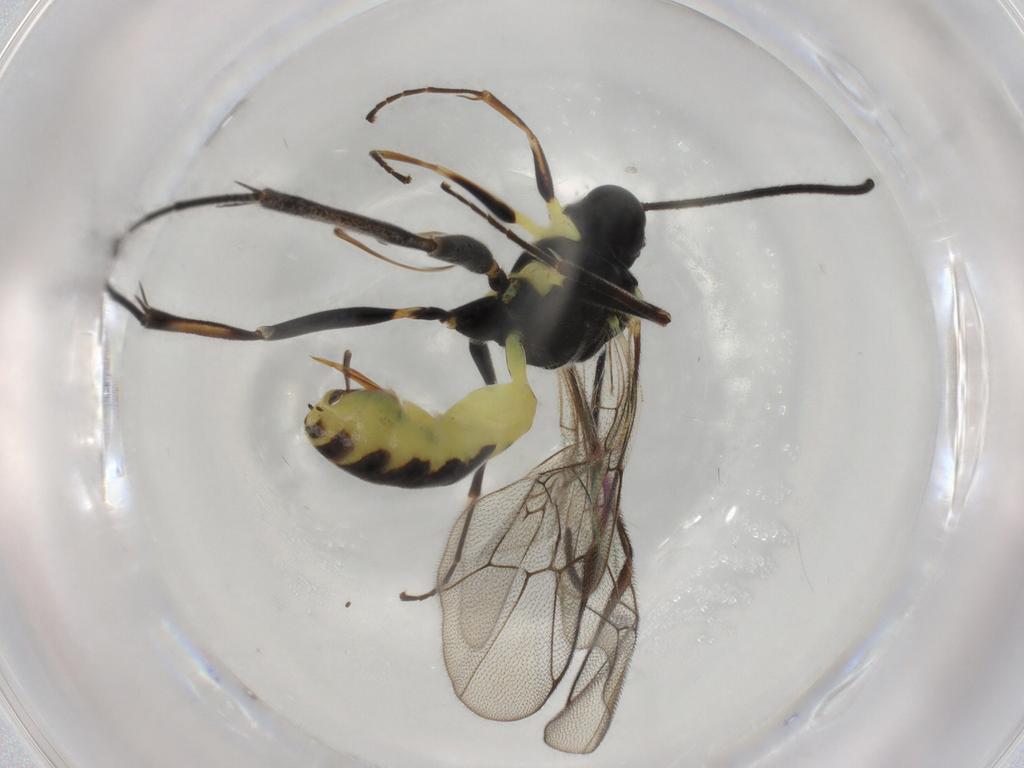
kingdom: Animalia
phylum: Arthropoda
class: Insecta
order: Hymenoptera
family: Ichneumonidae
